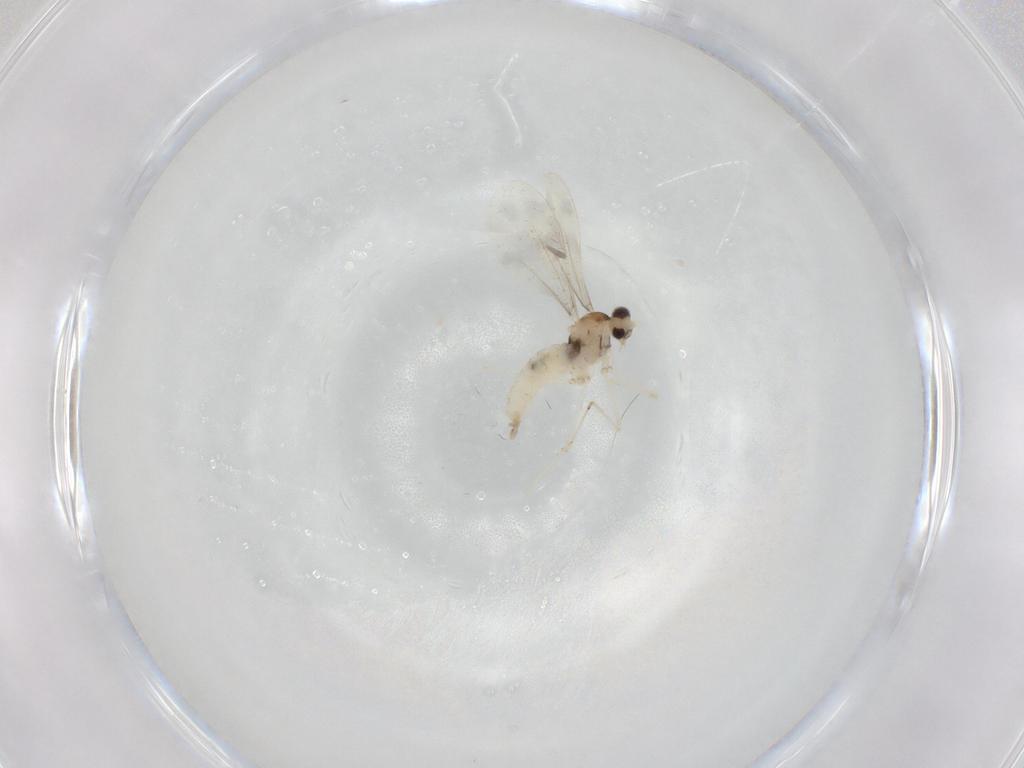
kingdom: Animalia
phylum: Arthropoda
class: Insecta
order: Diptera
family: Cecidomyiidae
